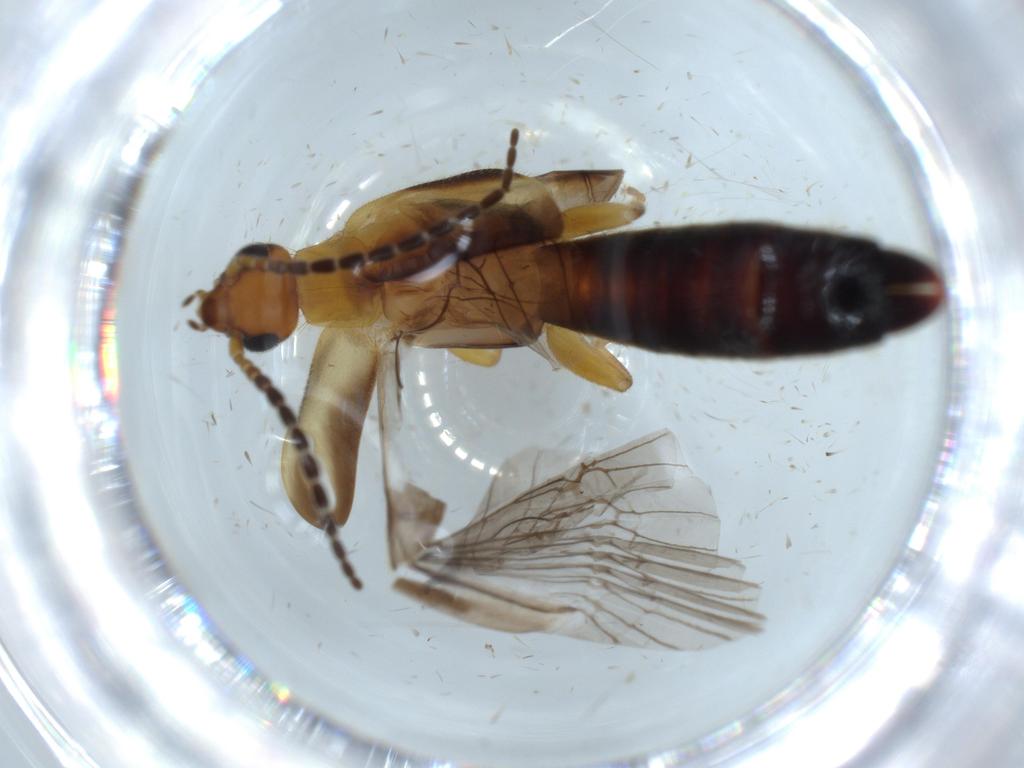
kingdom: Animalia
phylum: Arthropoda
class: Insecta
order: Dermaptera
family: Forficulidae
